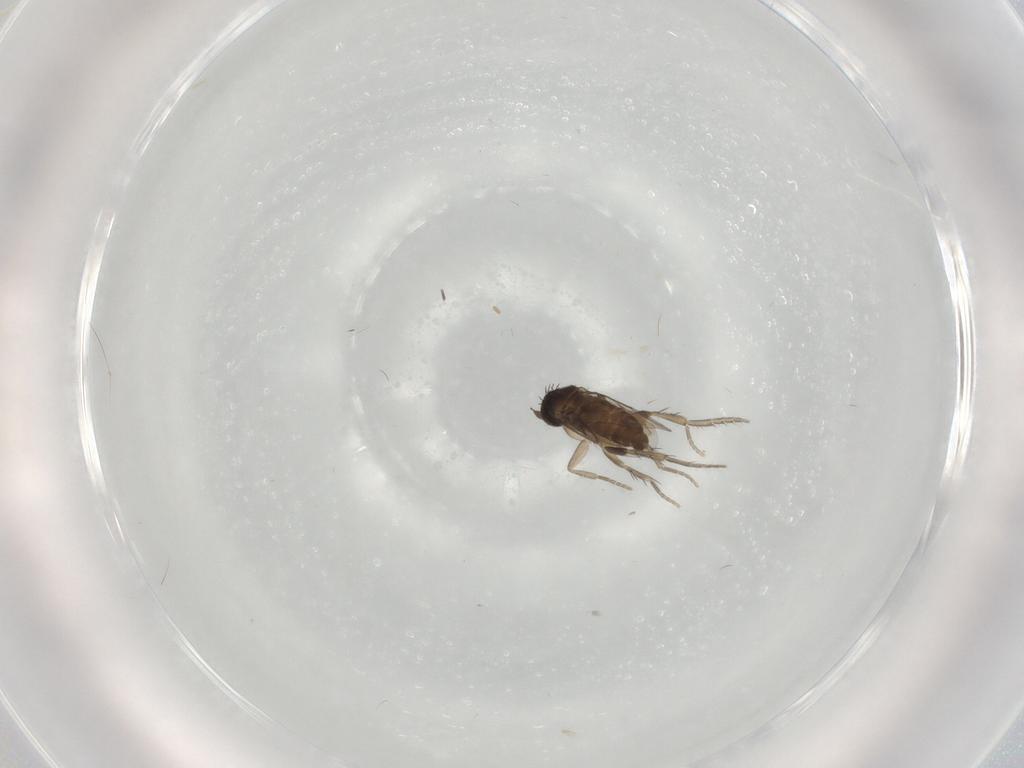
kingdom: Animalia
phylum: Arthropoda
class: Insecta
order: Diptera
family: Phoridae
